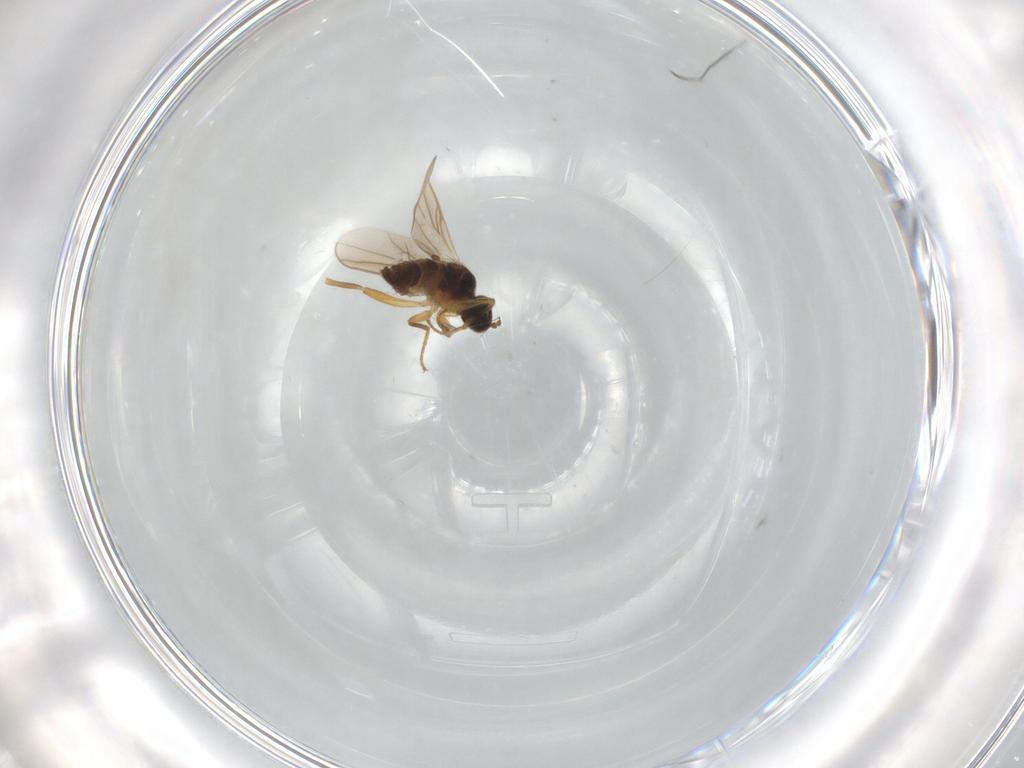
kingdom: Animalia
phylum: Arthropoda
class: Insecta
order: Diptera
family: Hybotidae
